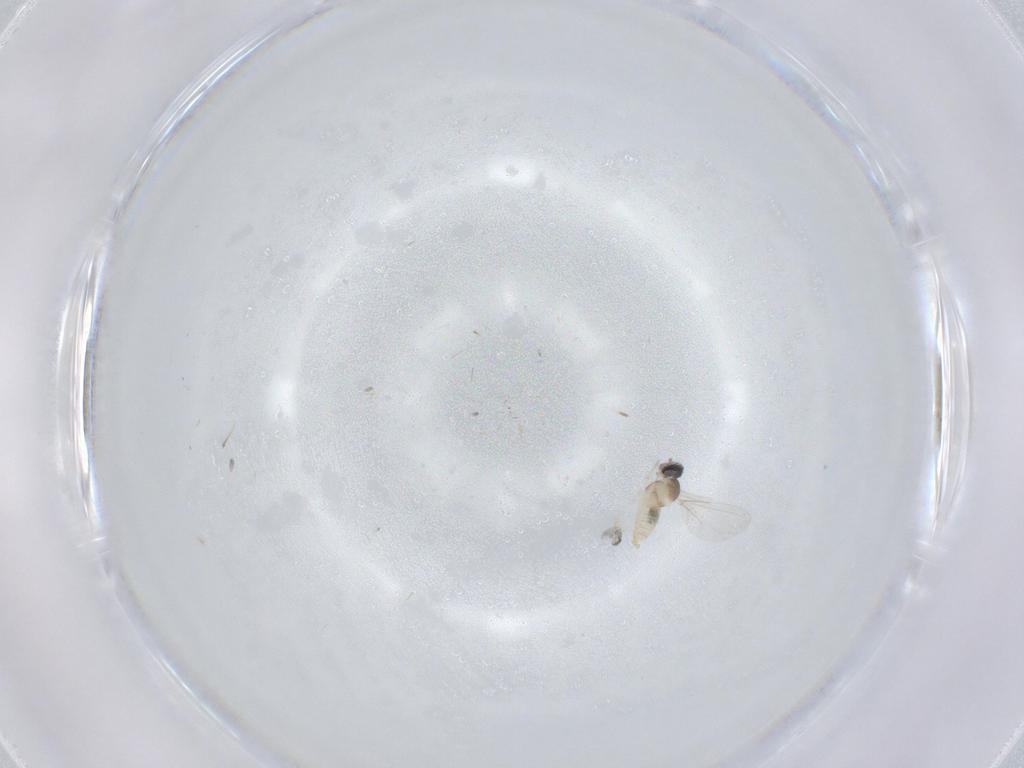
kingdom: Animalia
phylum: Arthropoda
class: Insecta
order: Diptera
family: Cecidomyiidae
